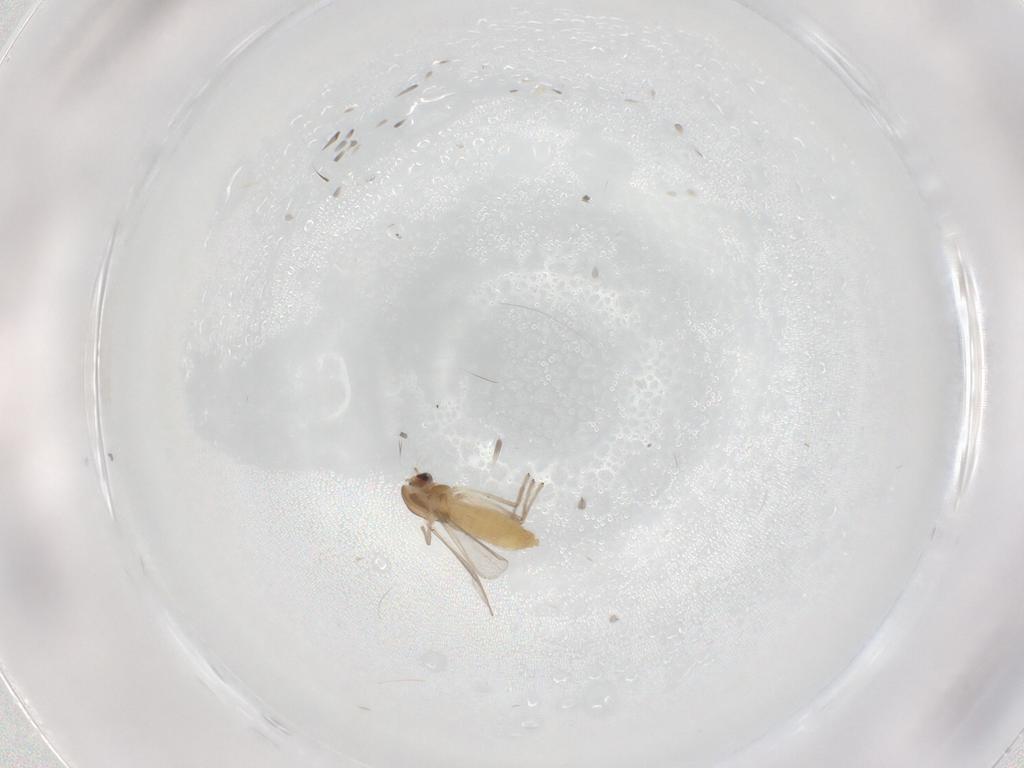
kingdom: Animalia
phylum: Arthropoda
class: Insecta
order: Diptera
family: Chironomidae
